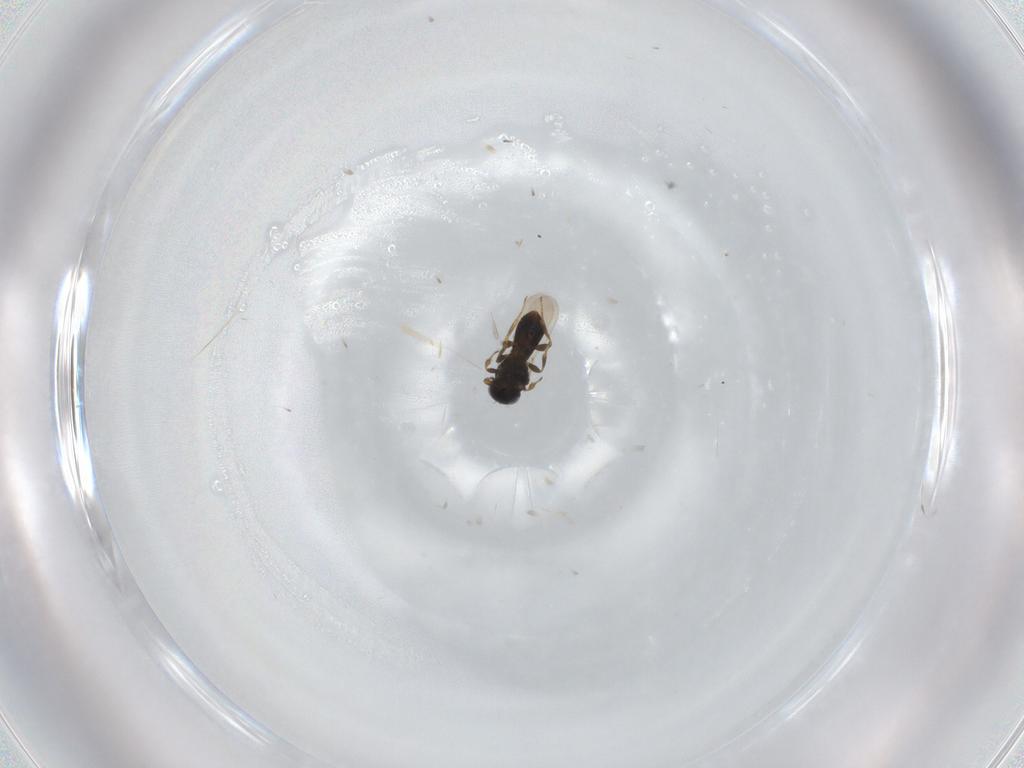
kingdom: Animalia
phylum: Arthropoda
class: Insecta
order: Hymenoptera
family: Platygastridae
